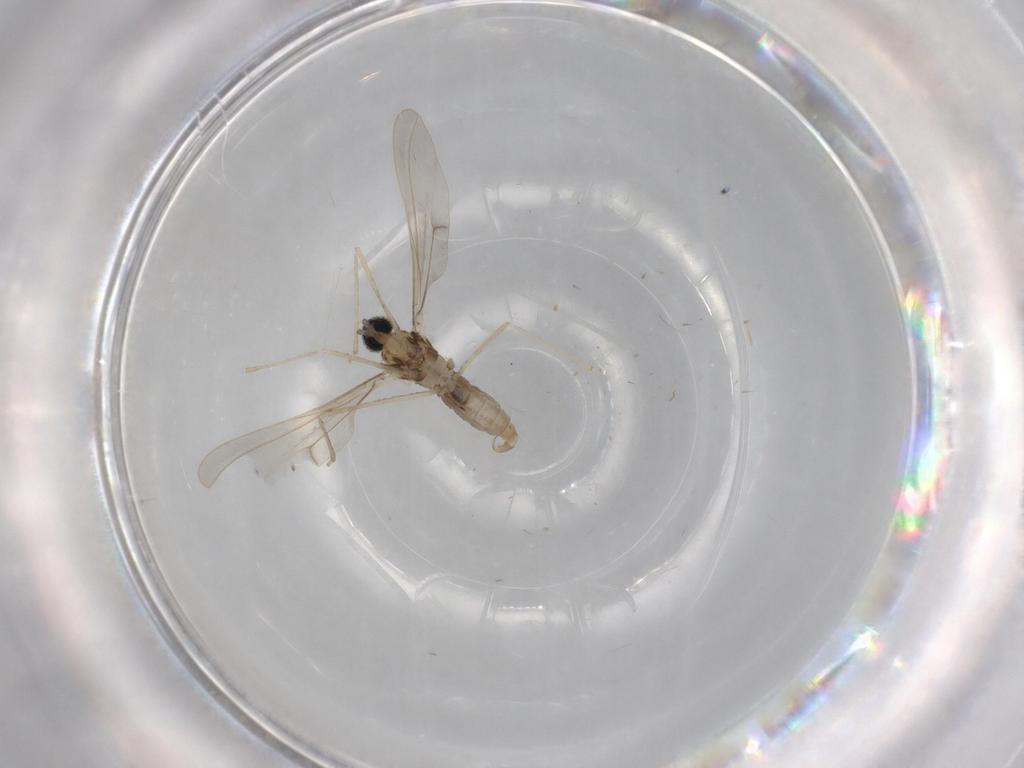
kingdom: Animalia
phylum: Arthropoda
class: Insecta
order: Diptera
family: Cecidomyiidae
